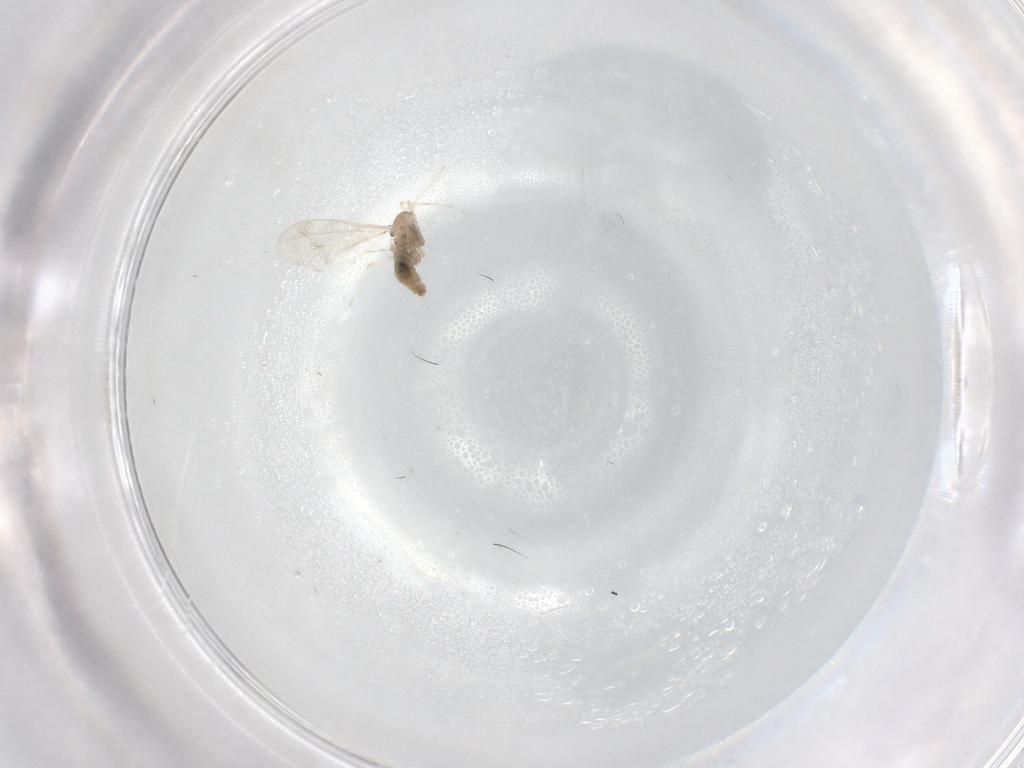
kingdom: Animalia
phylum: Arthropoda
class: Insecta
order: Diptera
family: Cecidomyiidae
